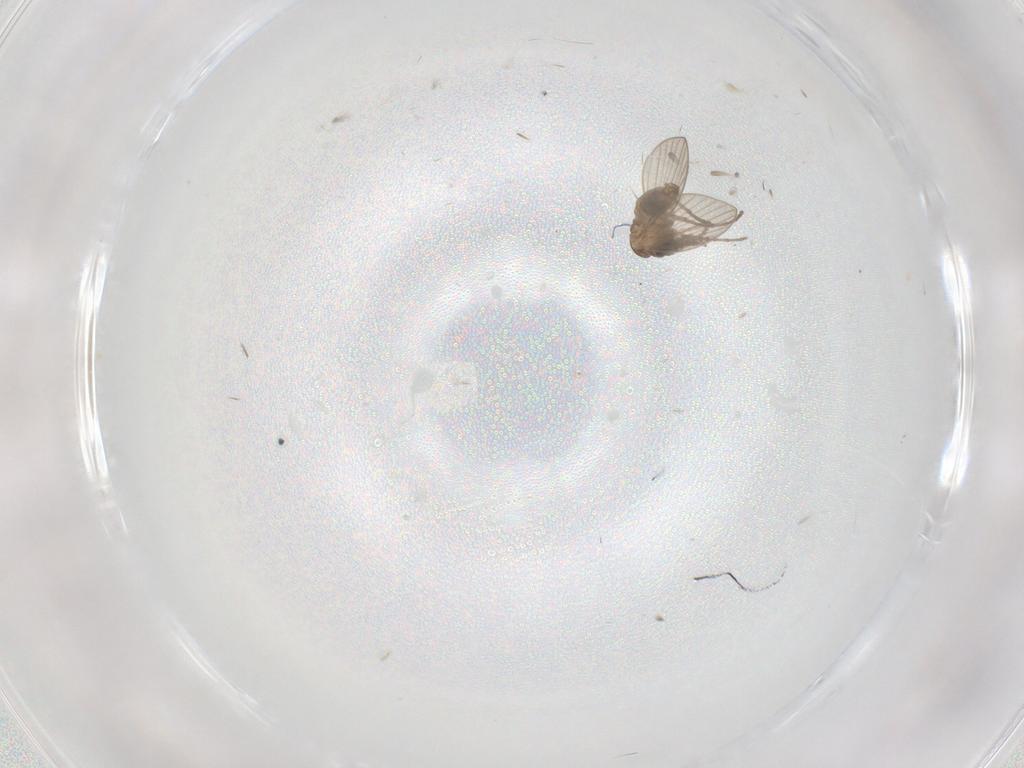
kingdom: Animalia
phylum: Arthropoda
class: Insecta
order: Diptera
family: Psychodidae
